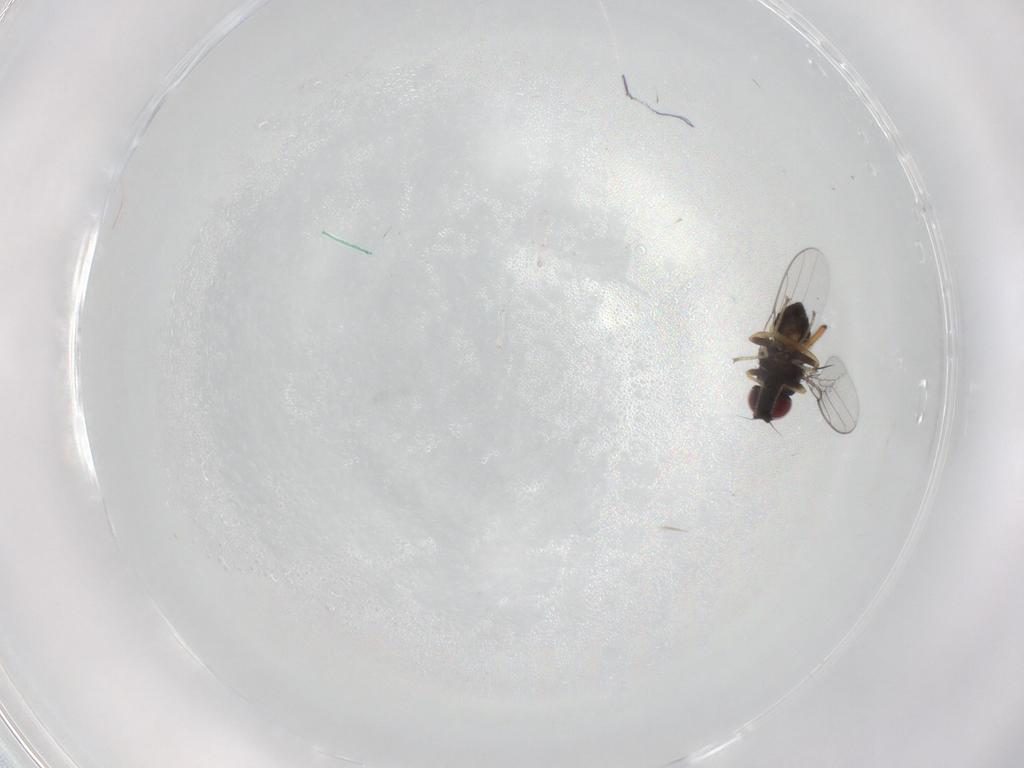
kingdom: Animalia
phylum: Arthropoda
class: Insecta
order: Diptera
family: Chloropidae
